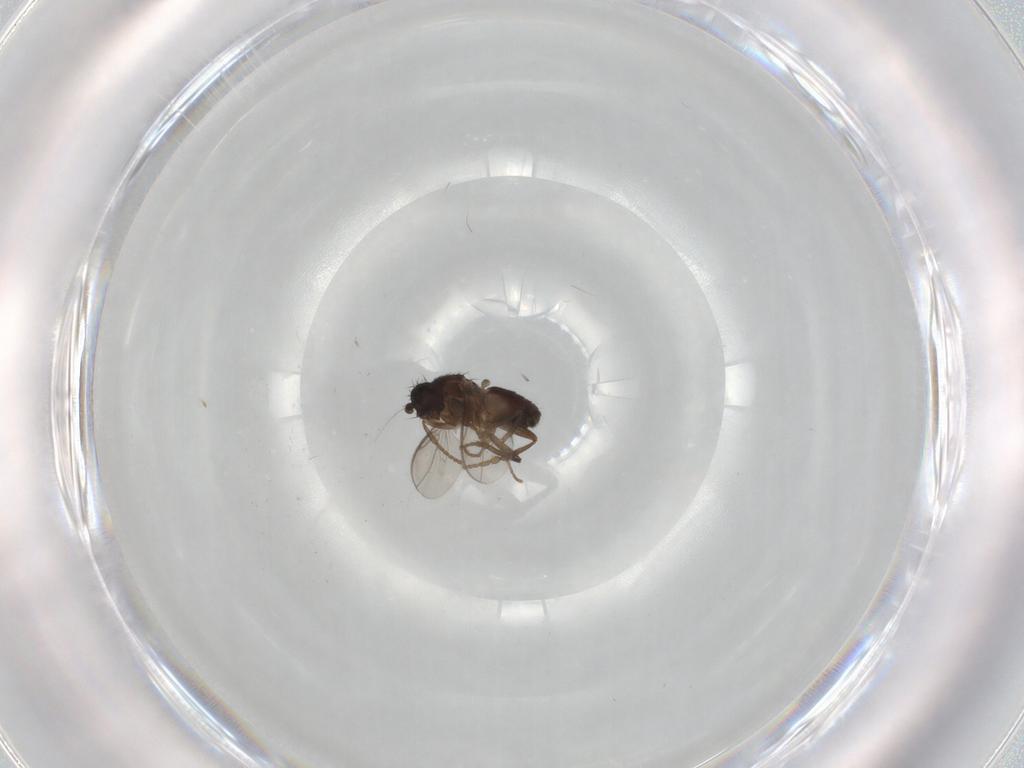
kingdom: Animalia
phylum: Arthropoda
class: Insecta
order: Diptera
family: Sphaeroceridae
